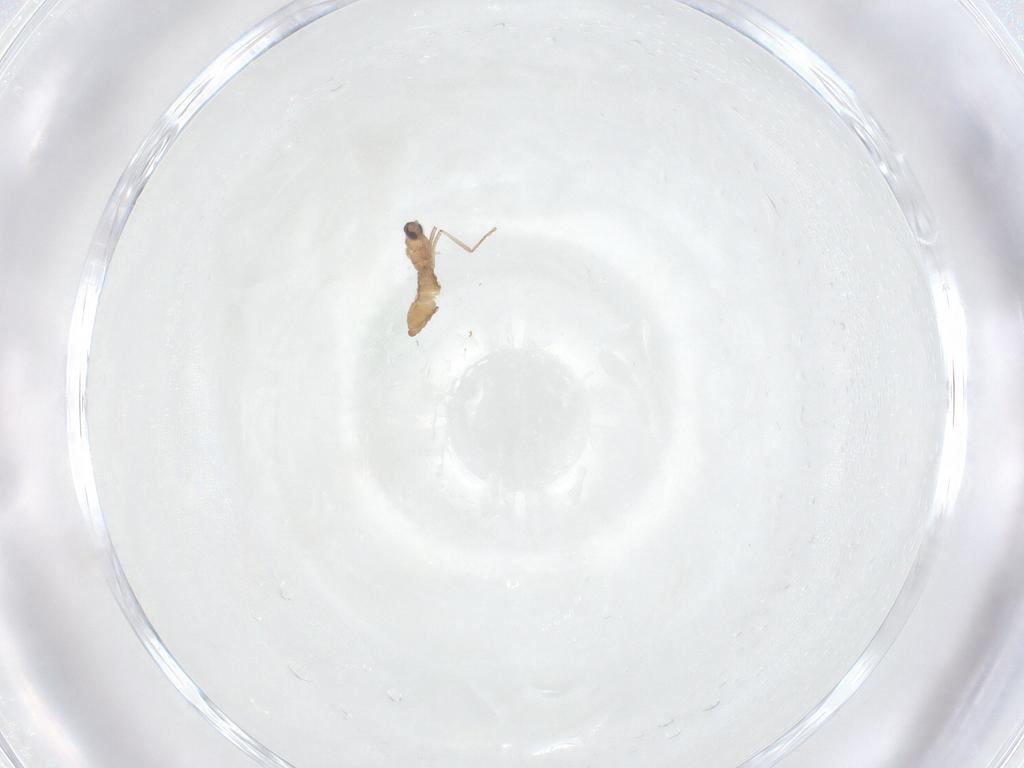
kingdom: Animalia
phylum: Arthropoda
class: Insecta
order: Diptera
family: Cecidomyiidae
